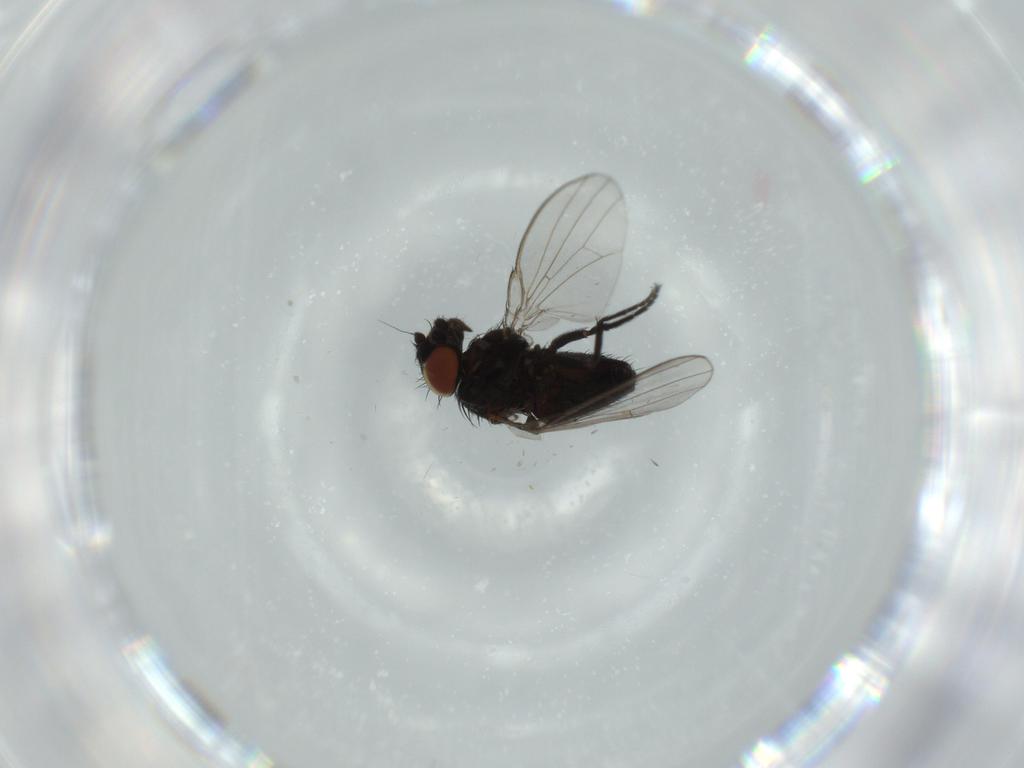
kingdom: Animalia
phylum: Arthropoda
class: Insecta
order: Diptera
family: Milichiidae
